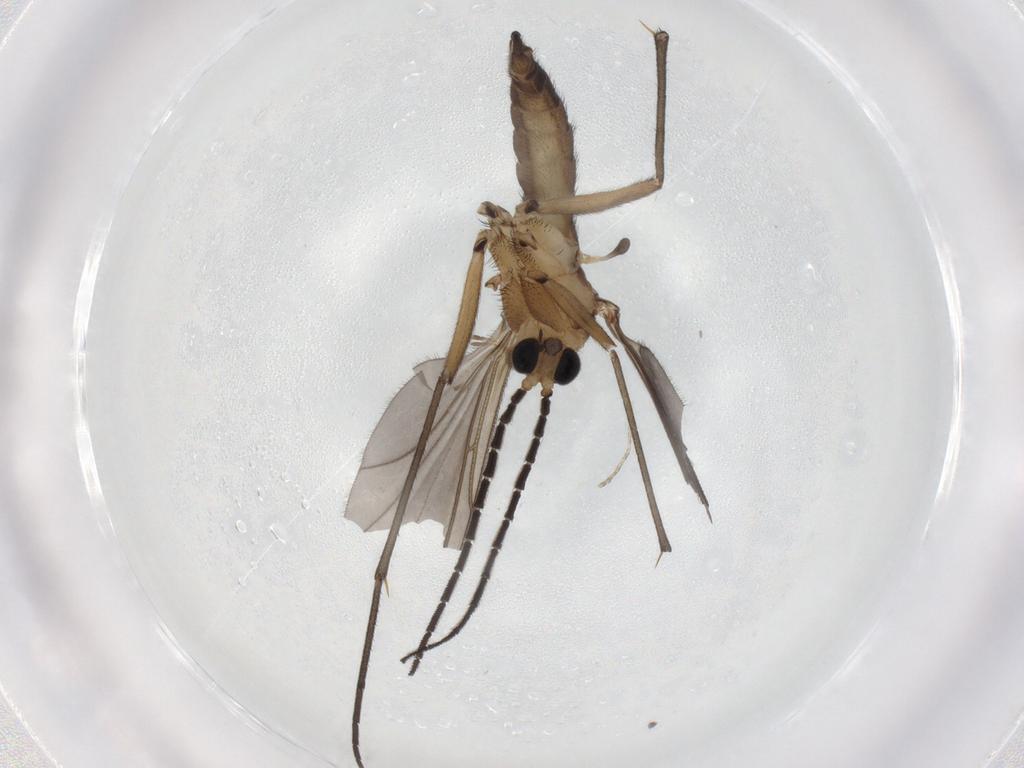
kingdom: Animalia
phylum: Arthropoda
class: Insecta
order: Diptera
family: Sciaridae
